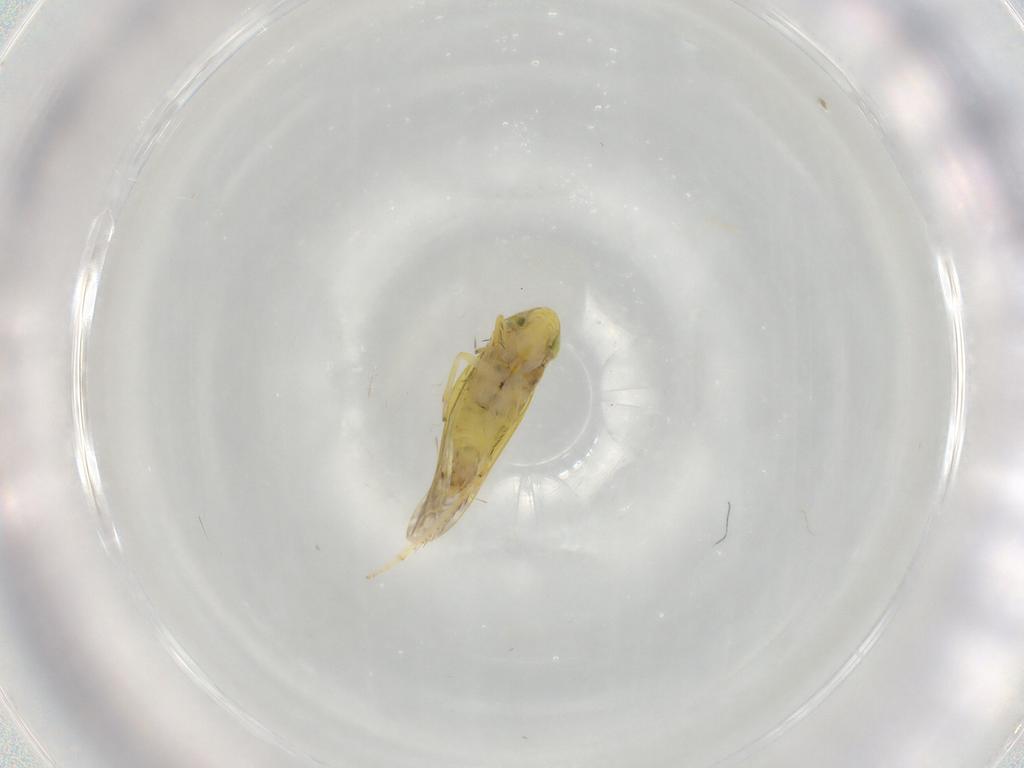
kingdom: Animalia
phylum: Arthropoda
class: Insecta
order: Hemiptera
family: Cicadellidae
